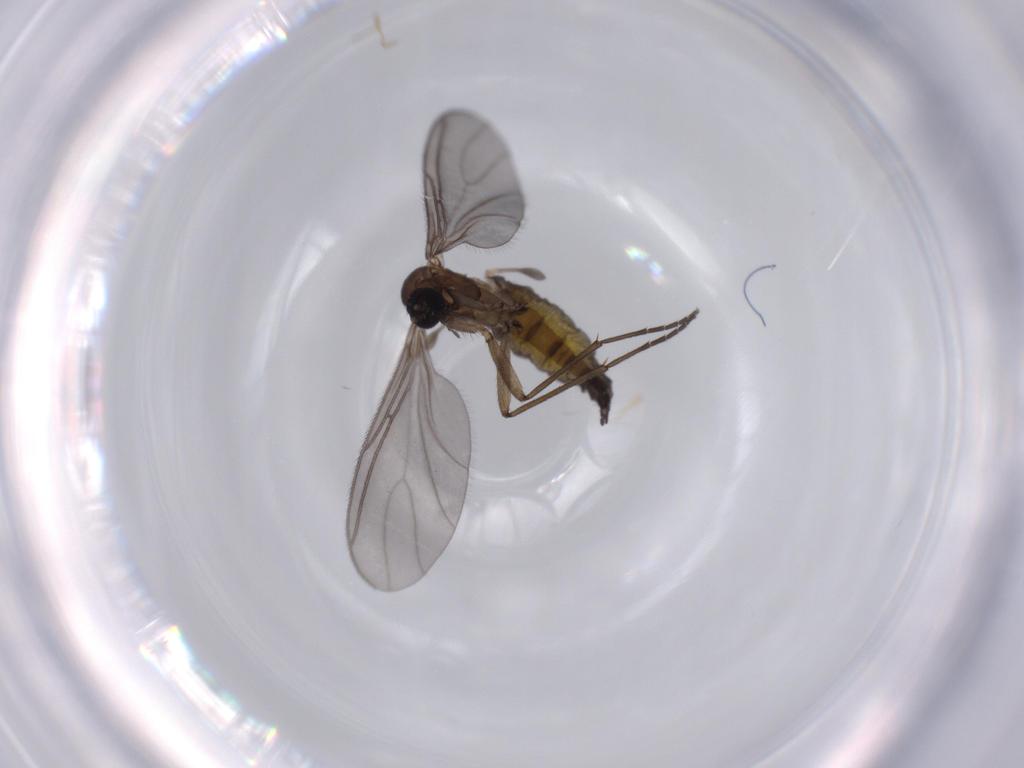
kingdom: Animalia
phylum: Arthropoda
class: Insecta
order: Diptera
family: Sciaridae
